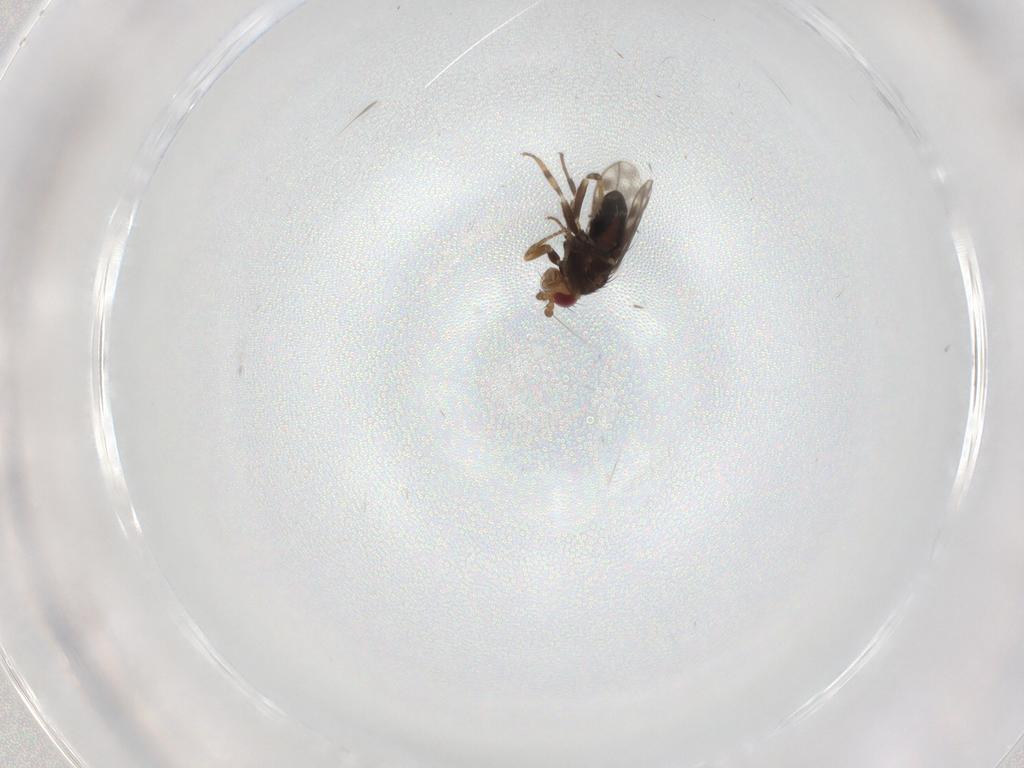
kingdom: Animalia
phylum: Arthropoda
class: Insecta
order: Diptera
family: Sphaeroceridae
